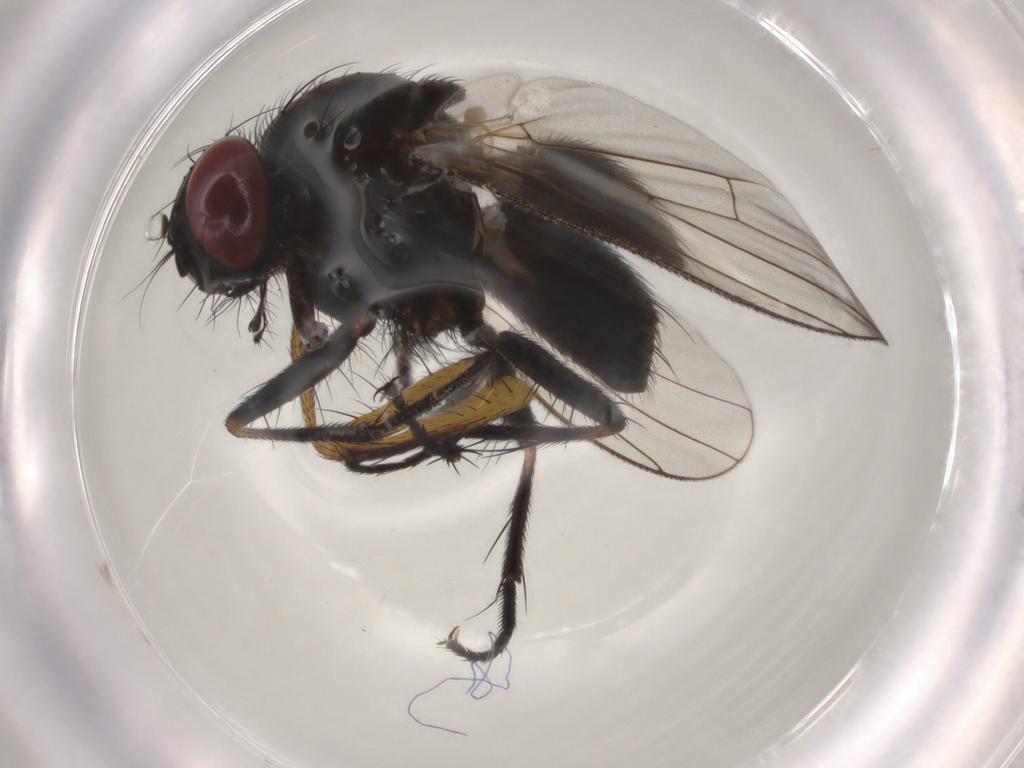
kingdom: Animalia
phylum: Arthropoda
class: Insecta
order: Diptera
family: Muscidae
